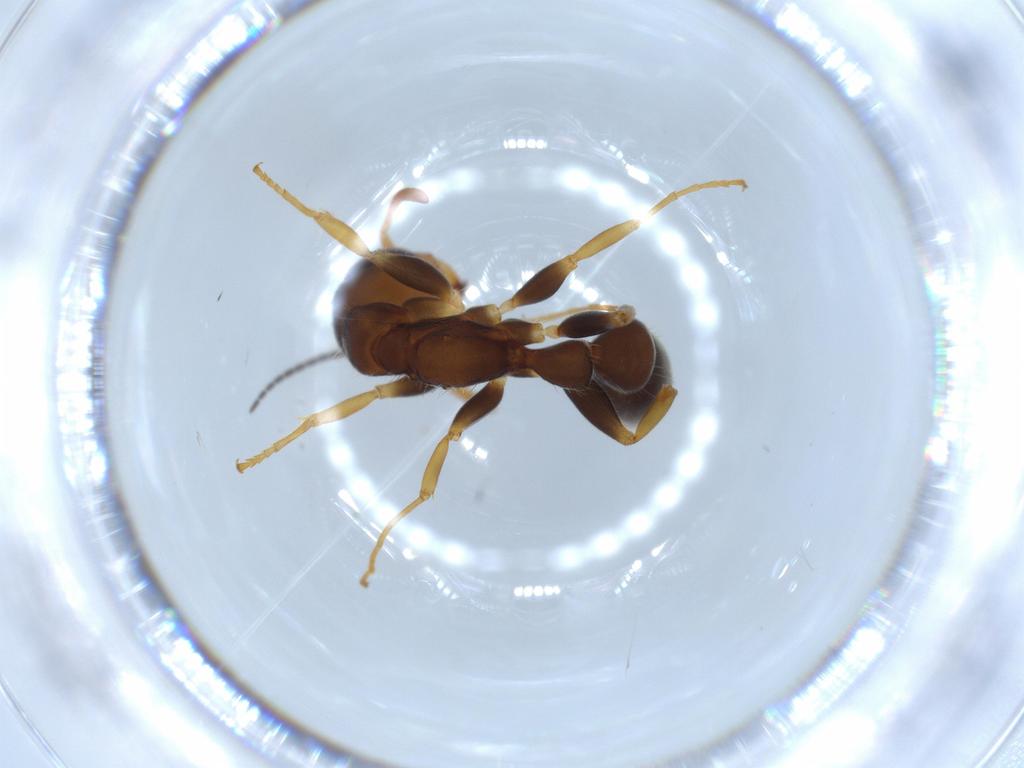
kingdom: Animalia
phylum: Arthropoda
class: Insecta
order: Hymenoptera
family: Formicidae
